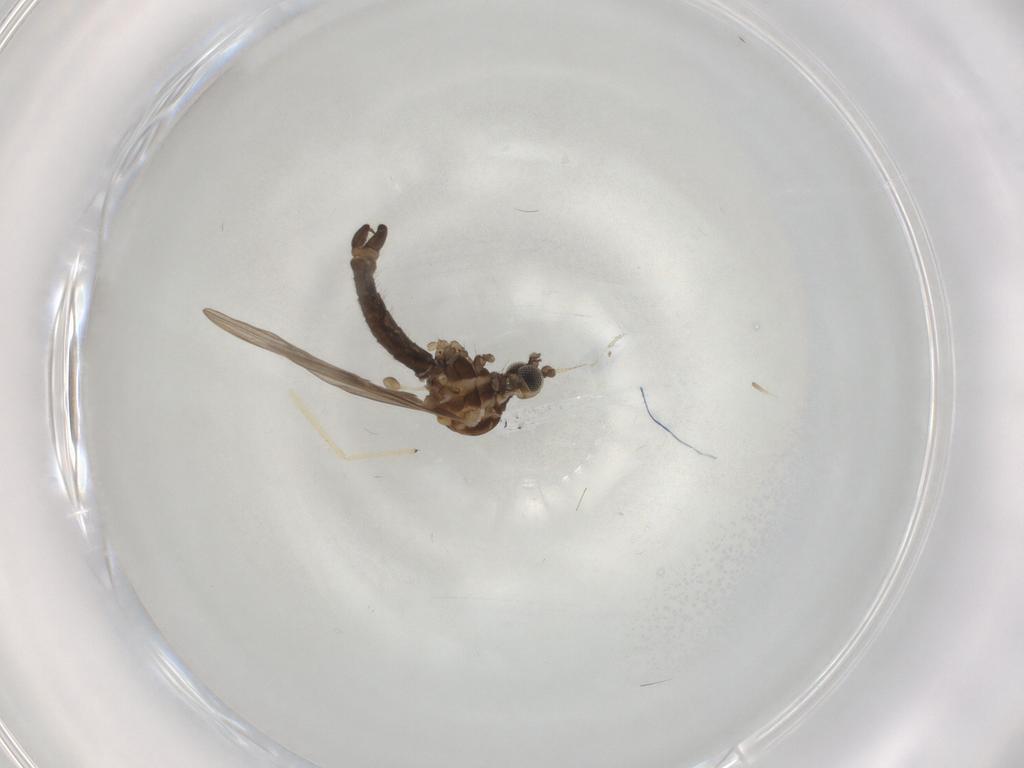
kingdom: Animalia
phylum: Arthropoda
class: Insecta
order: Diptera
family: Limoniidae
